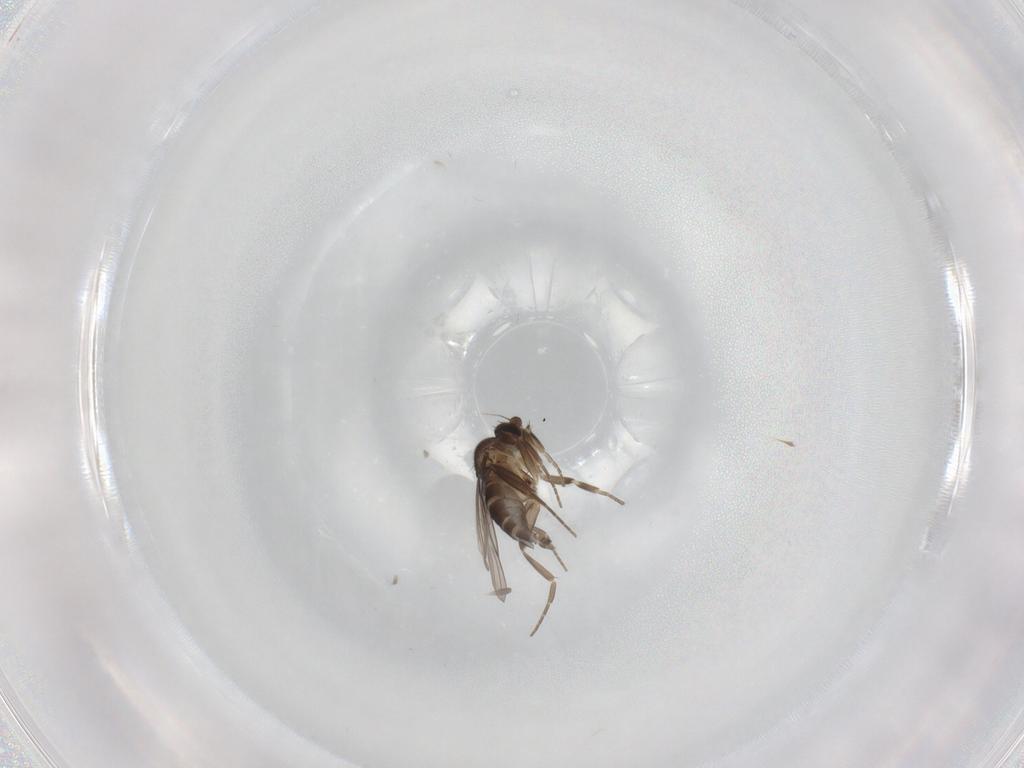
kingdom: Animalia
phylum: Arthropoda
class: Insecta
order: Diptera
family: Phoridae
